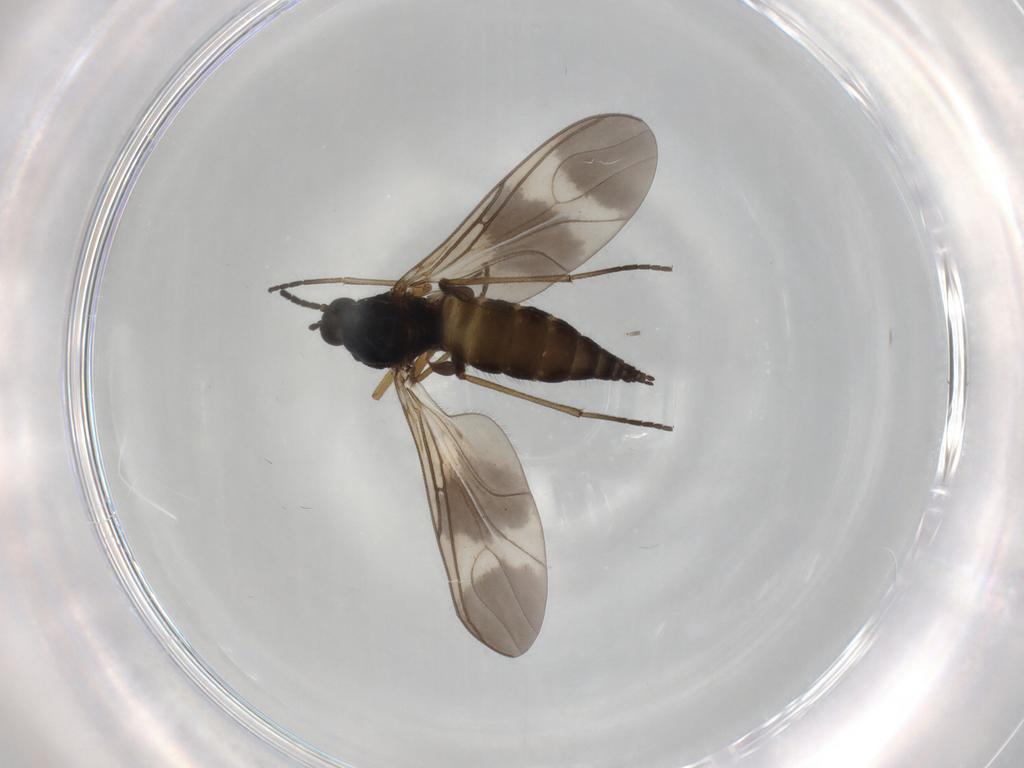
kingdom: Animalia
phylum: Arthropoda
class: Insecta
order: Diptera
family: Sciaridae
